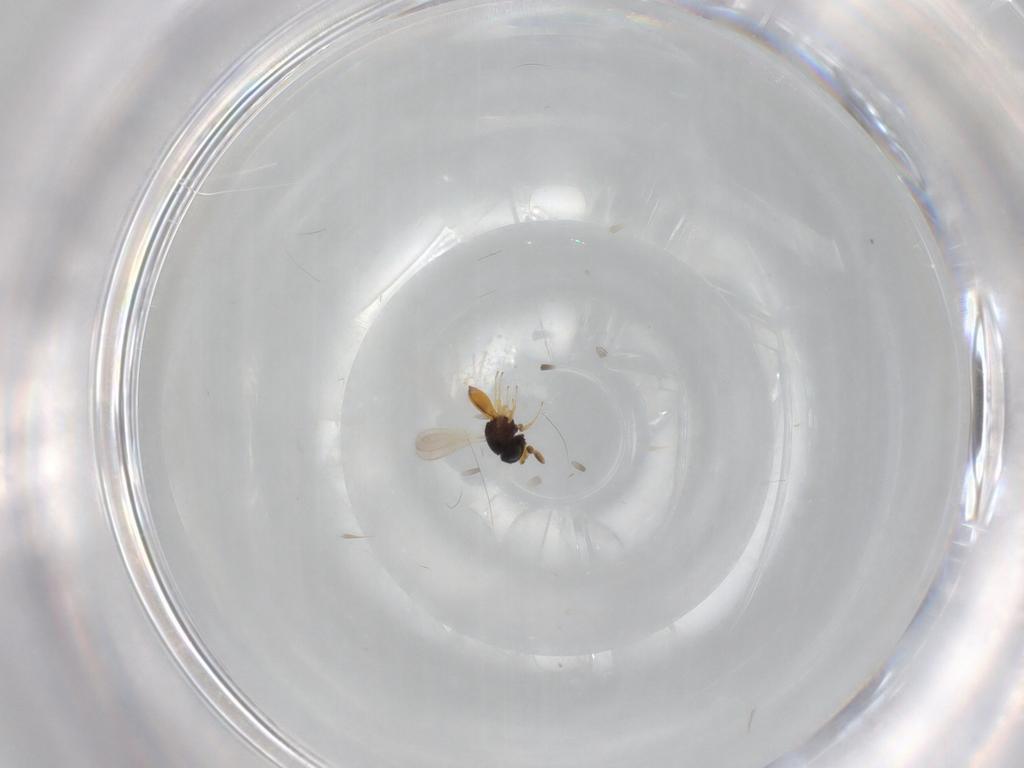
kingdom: Animalia
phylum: Arthropoda
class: Insecta
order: Hymenoptera
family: Scelionidae
